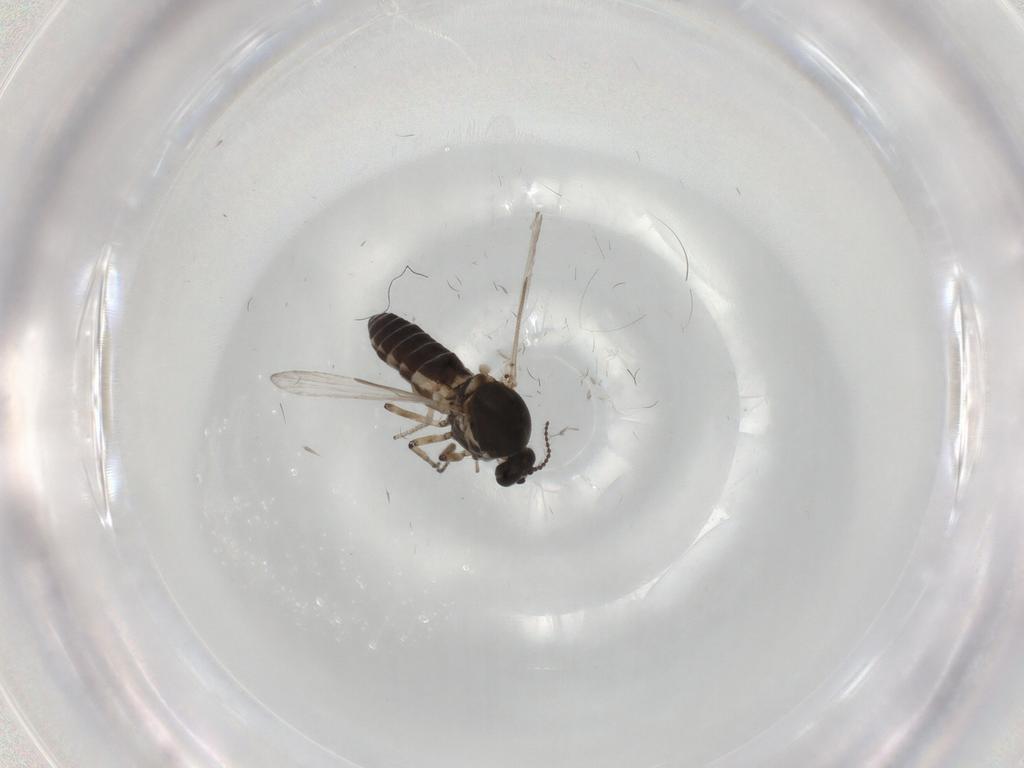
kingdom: Animalia
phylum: Arthropoda
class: Insecta
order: Diptera
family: Ceratopogonidae
